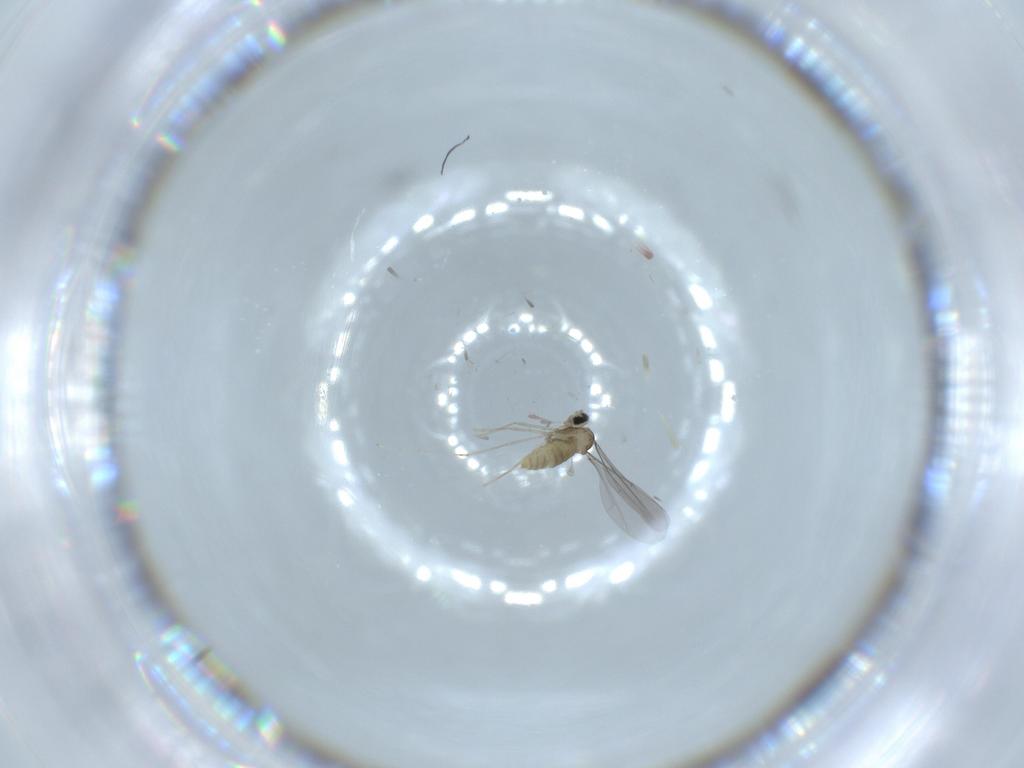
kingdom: Animalia
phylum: Arthropoda
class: Insecta
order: Diptera
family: Cecidomyiidae
